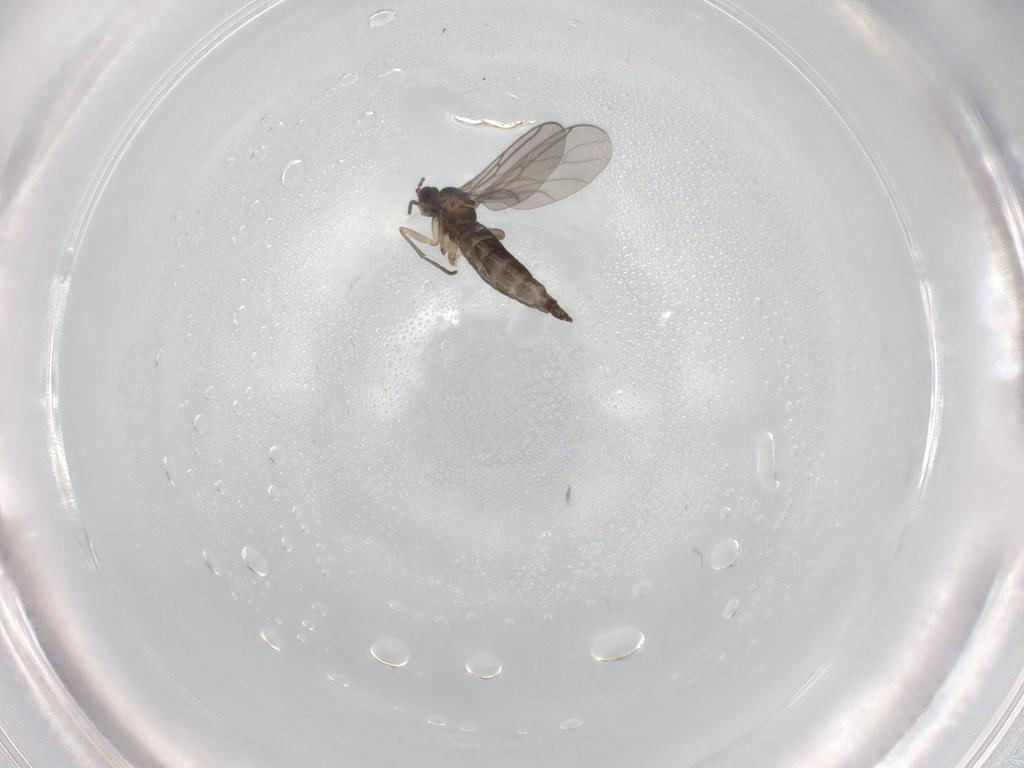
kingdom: Animalia
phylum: Arthropoda
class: Insecta
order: Diptera
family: Sciaridae
